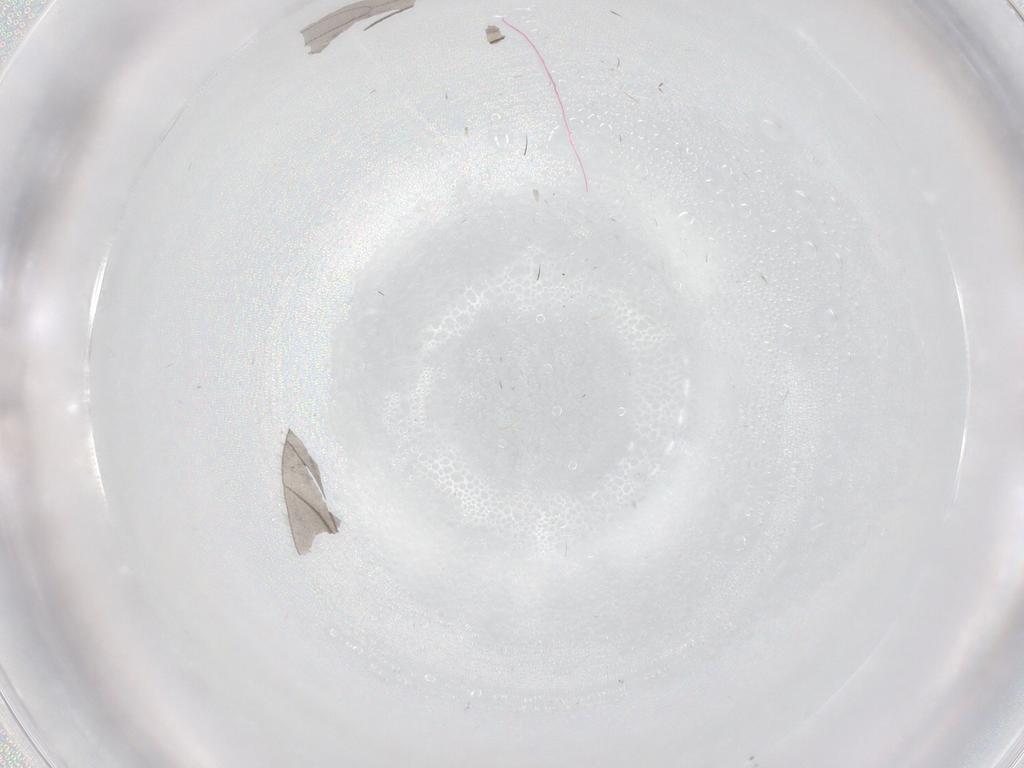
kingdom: Animalia
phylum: Arthropoda
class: Insecta
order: Diptera
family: Sciaridae
